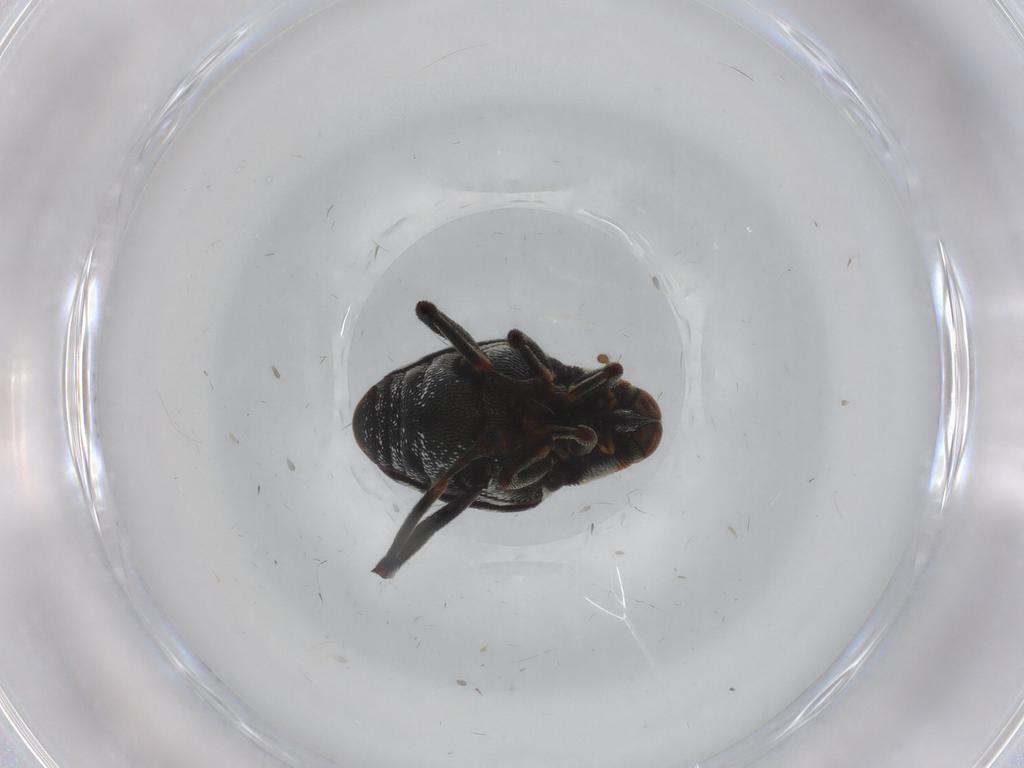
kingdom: Animalia
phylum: Arthropoda
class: Insecta
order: Coleoptera
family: Curculionidae
